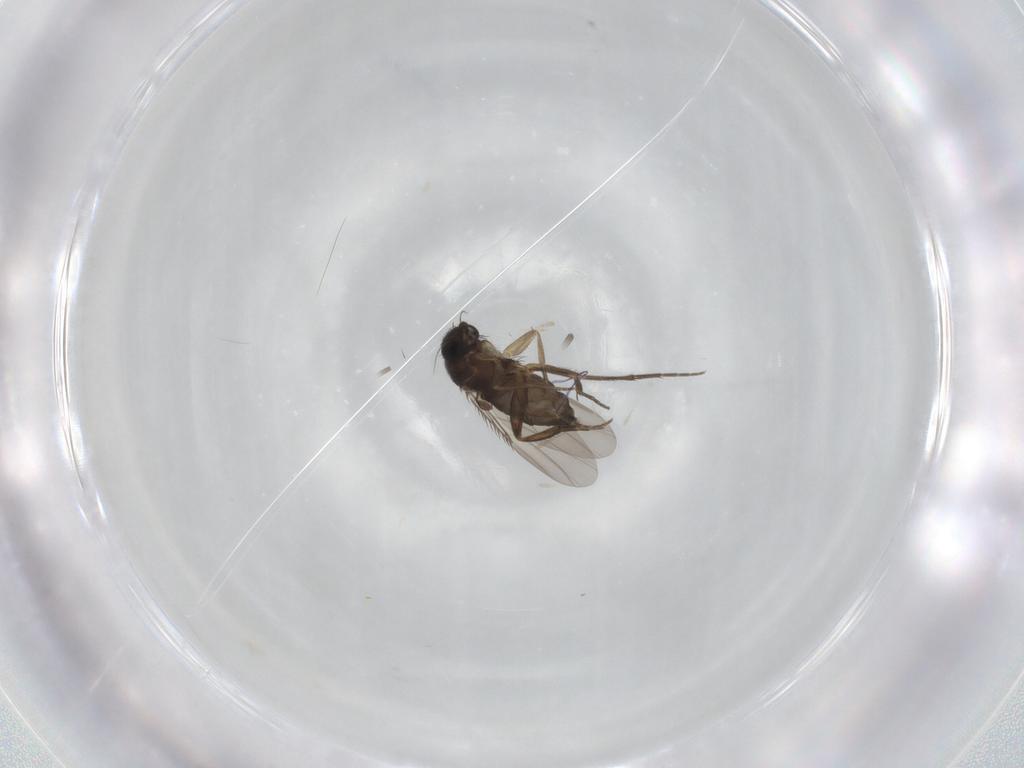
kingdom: Animalia
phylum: Arthropoda
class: Insecta
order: Diptera
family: Phoridae
